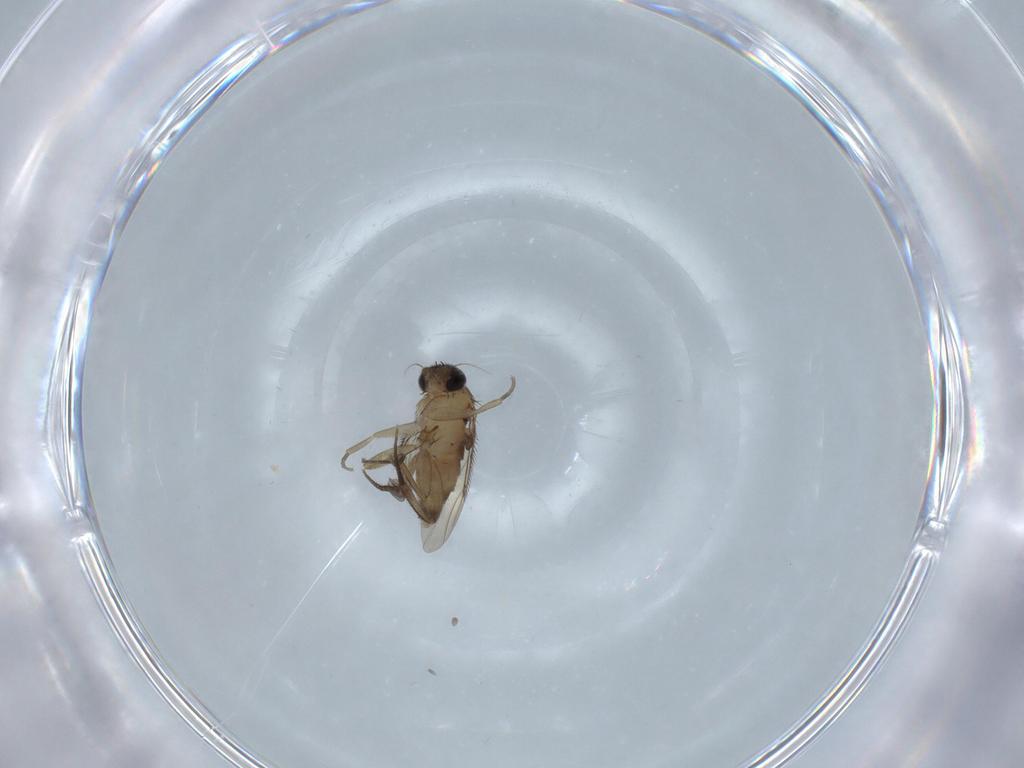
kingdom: Animalia
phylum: Arthropoda
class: Insecta
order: Diptera
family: Phoridae
